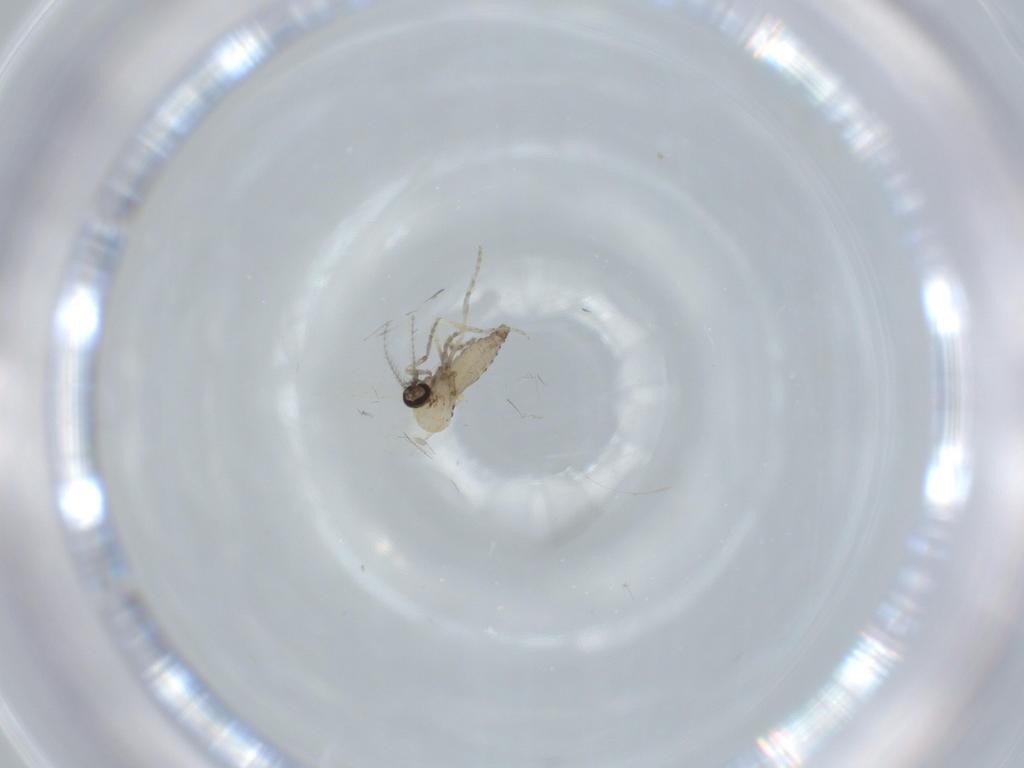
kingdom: Animalia
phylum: Arthropoda
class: Insecta
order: Diptera
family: Ceratopogonidae
